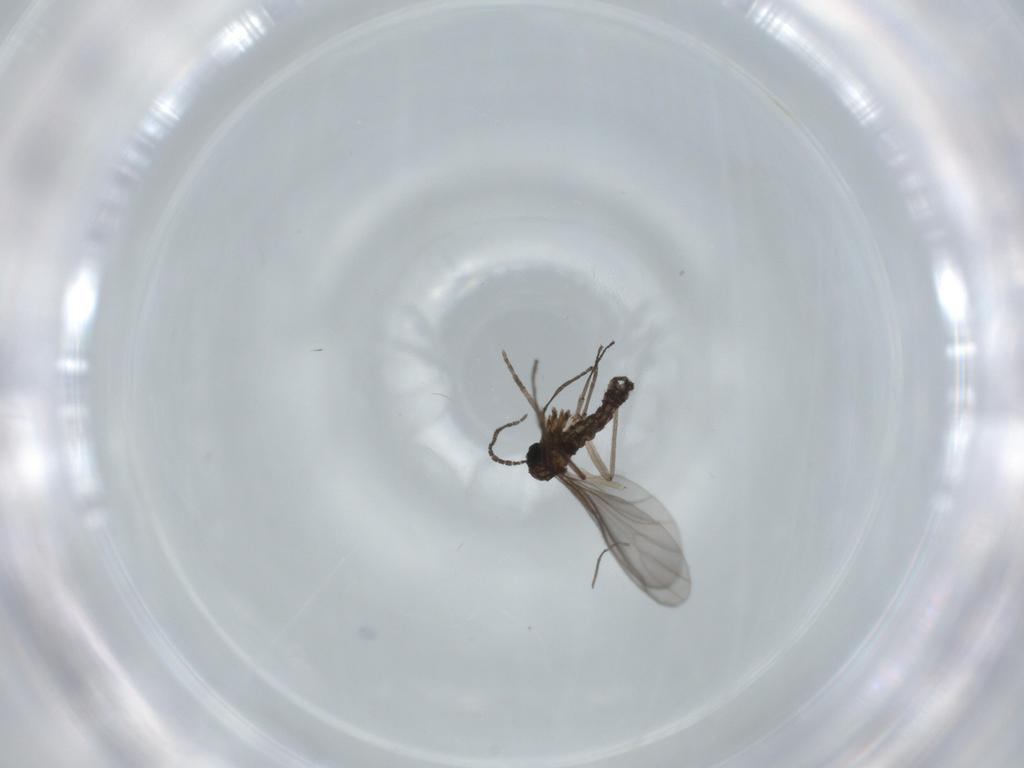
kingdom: Animalia
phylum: Arthropoda
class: Insecta
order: Diptera
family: Sciaridae
